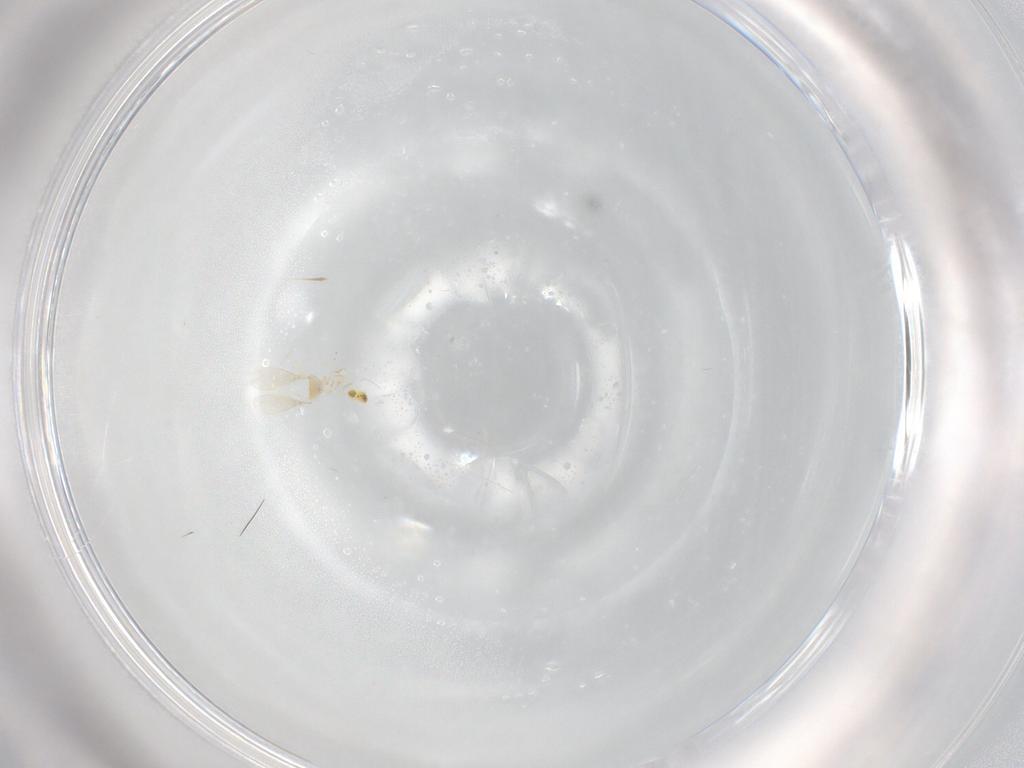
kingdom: Animalia
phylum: Arthropoda
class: Insecta
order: Hymenoptera
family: Aphelinidae
